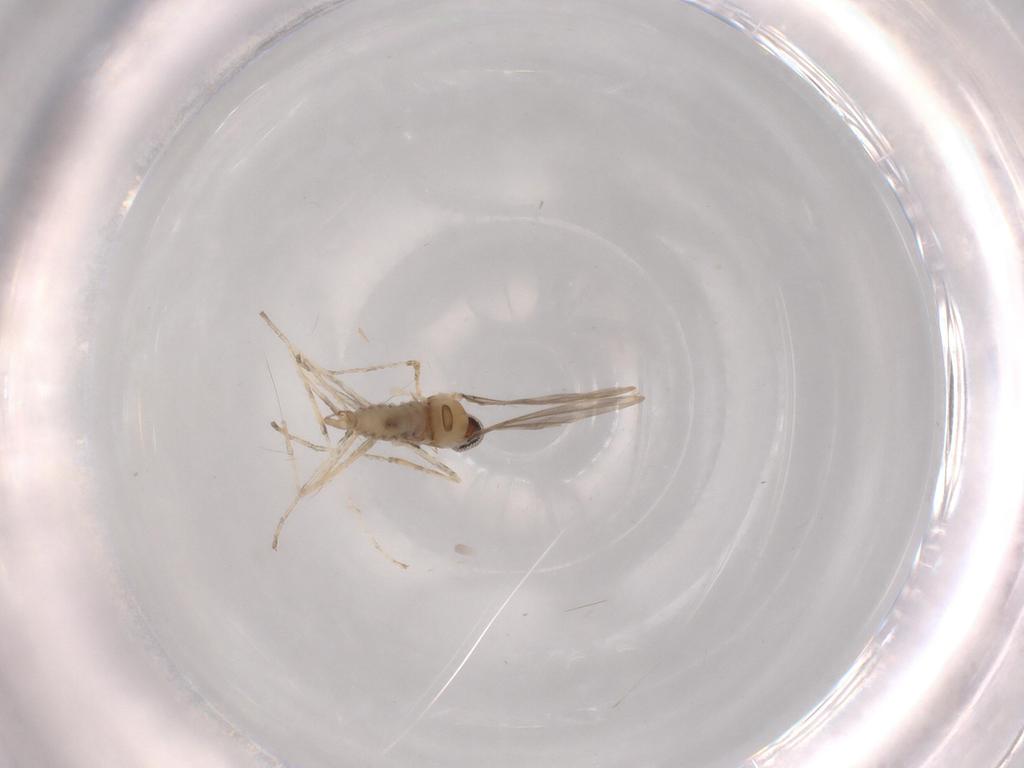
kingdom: Animalia
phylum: Arthropoda
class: Insecta
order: Diptera
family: Cecidomyiidae
